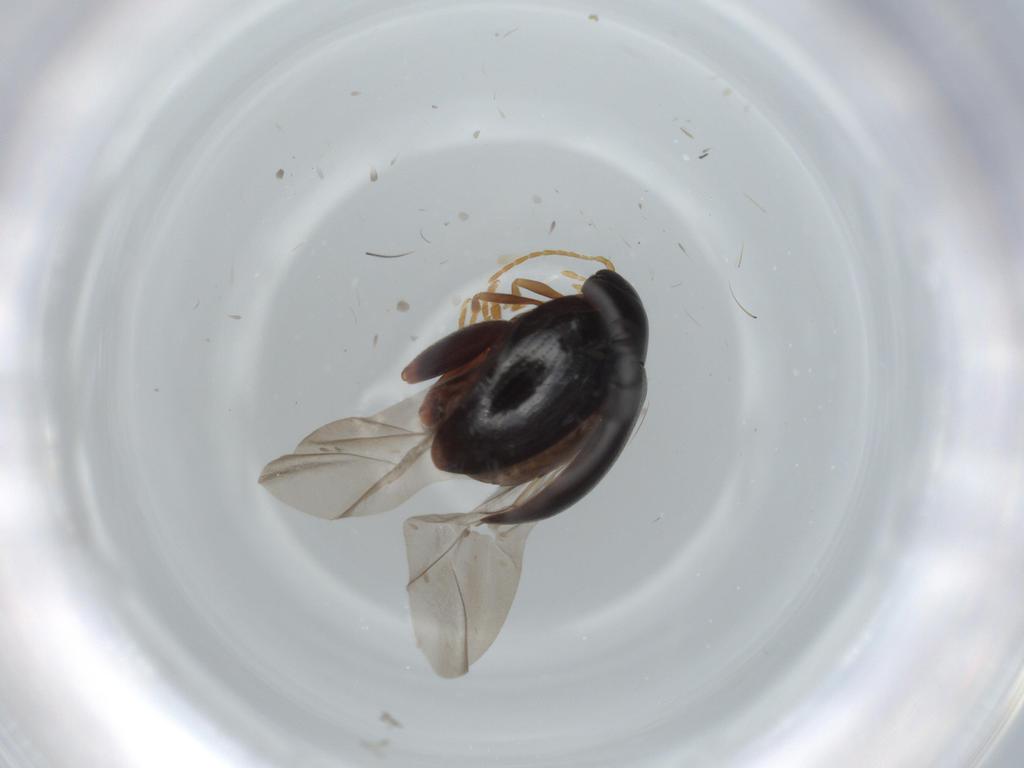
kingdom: Animalia
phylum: Arthropoda
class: Insecta
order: Coleoptera
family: Chrysomelidae
